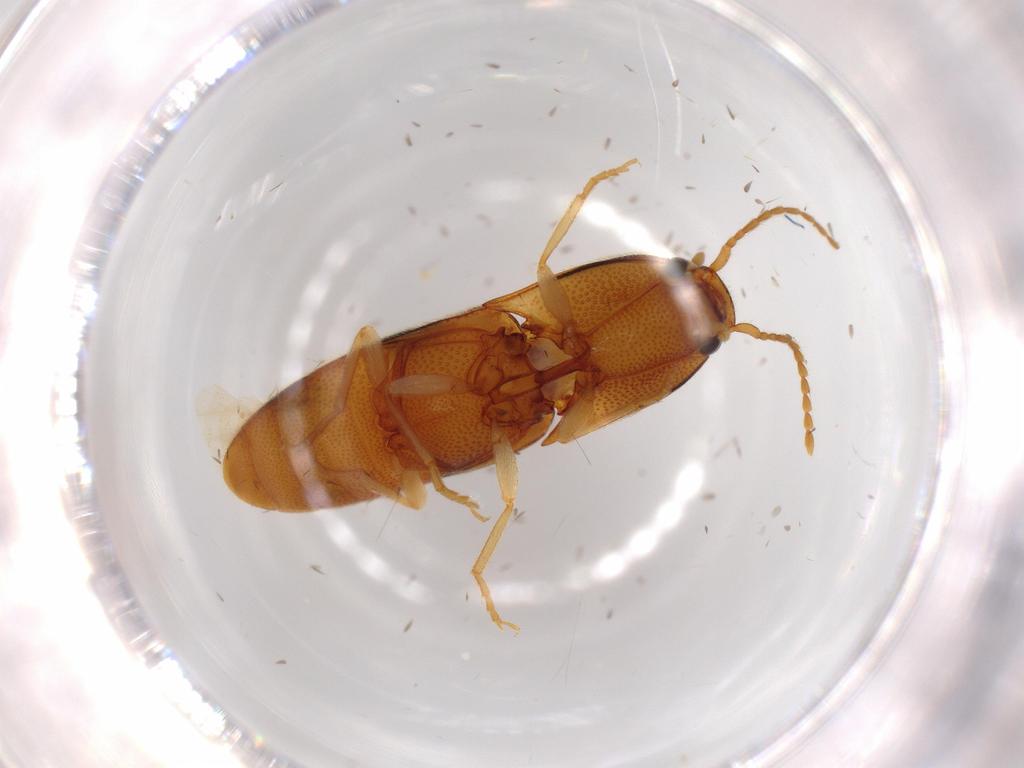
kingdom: Animalia
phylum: Arthropoda
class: Insecta
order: Coleoptera
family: Elateridae
